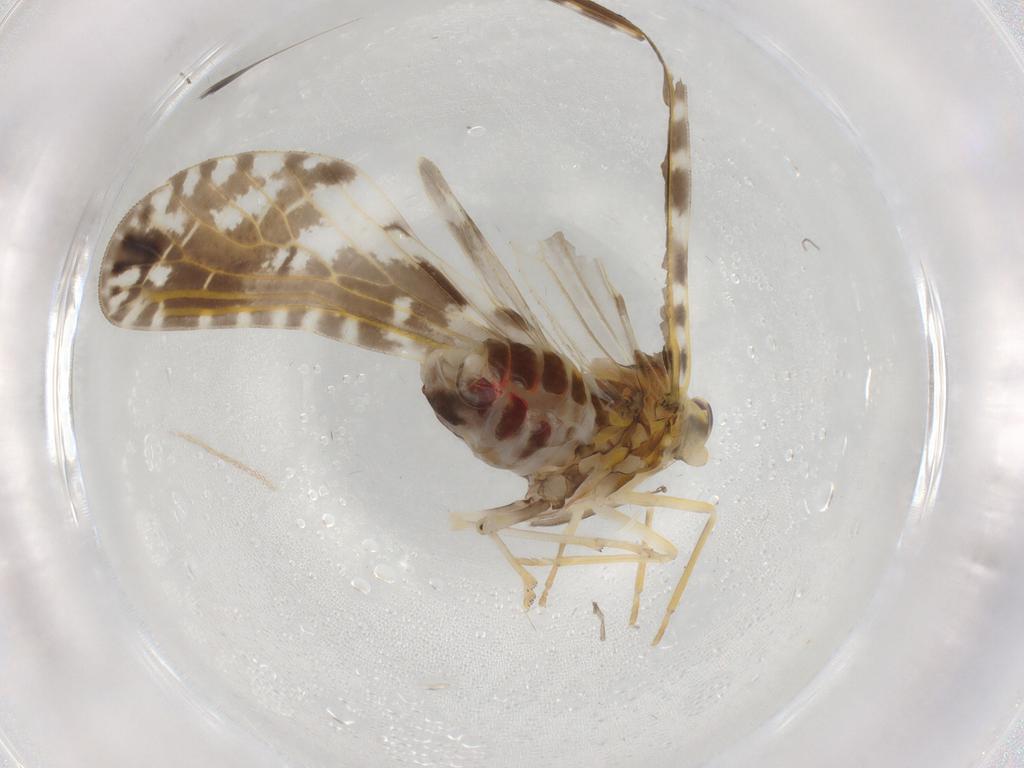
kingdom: Animalia
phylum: Arthropoda
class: Insecta
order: Hemiptera
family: Derbidae
